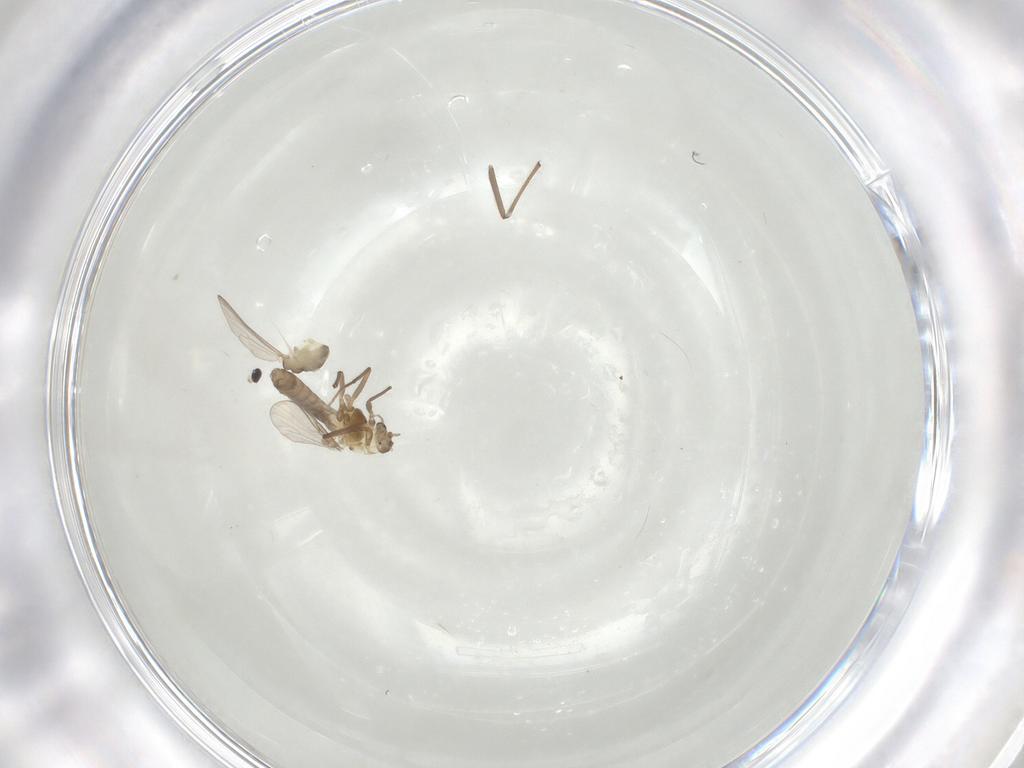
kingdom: Animalia
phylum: Arthropoda
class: Insecta
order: Diptera
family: Chironomidae
